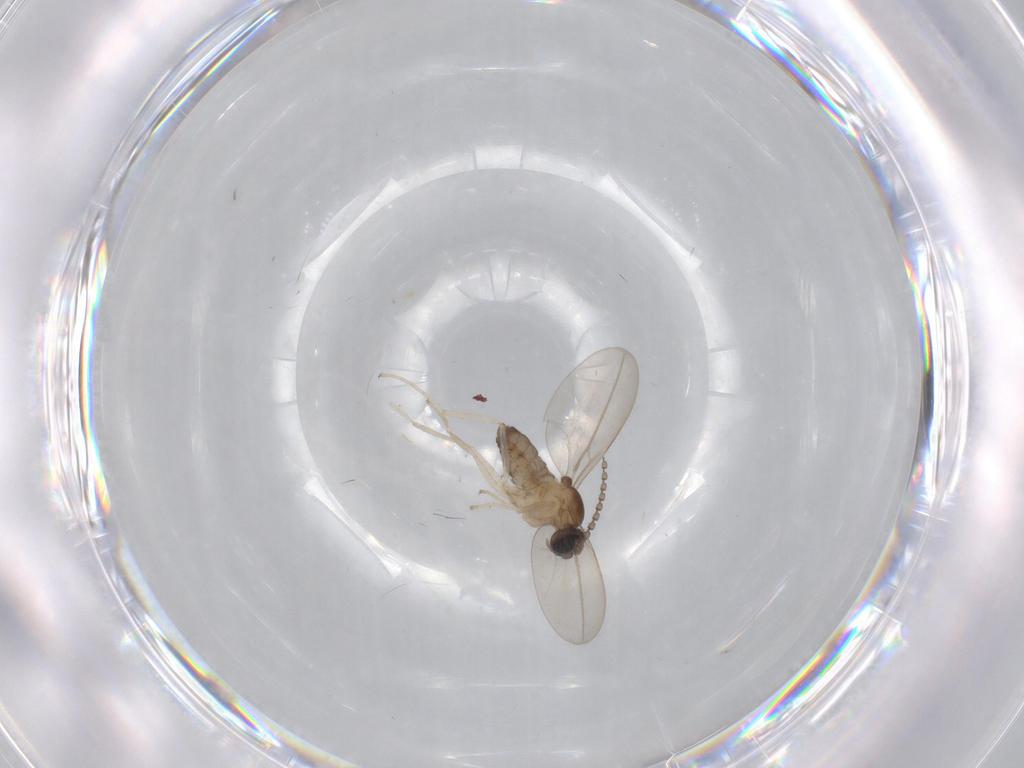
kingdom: Animalia
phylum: Arthropoda
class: Insecta
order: Diptera
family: Cecidomyiidae
